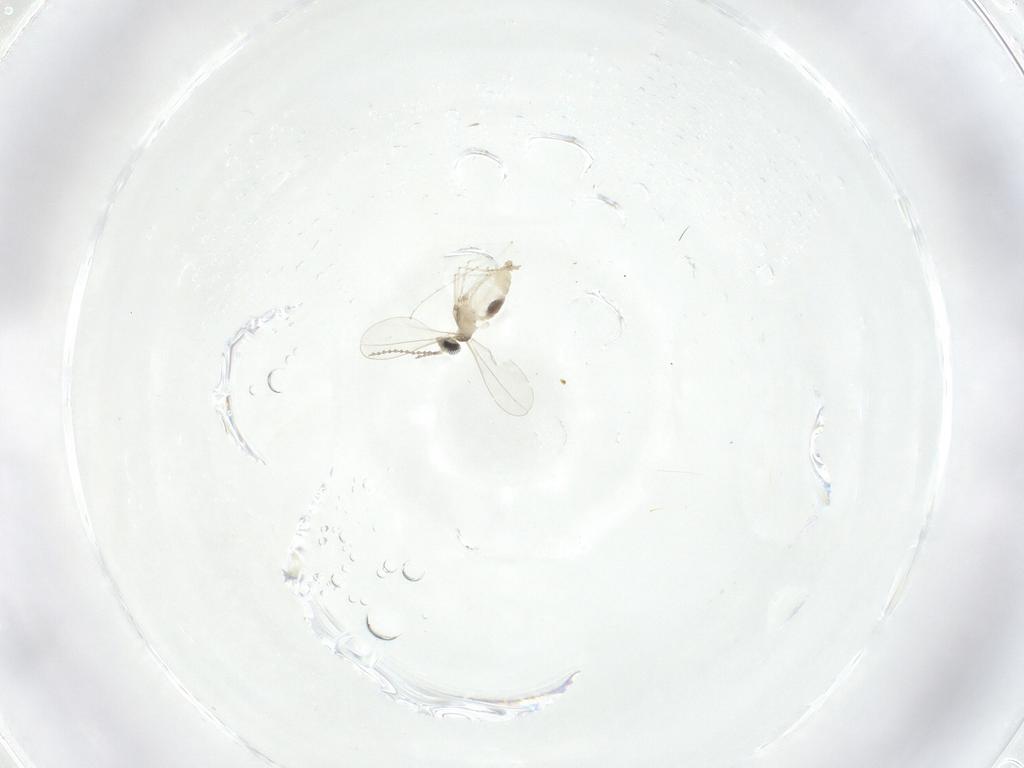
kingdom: Animalia
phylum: Arthropoda
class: Insecta
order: Diptera
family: Cecidomyiidae
